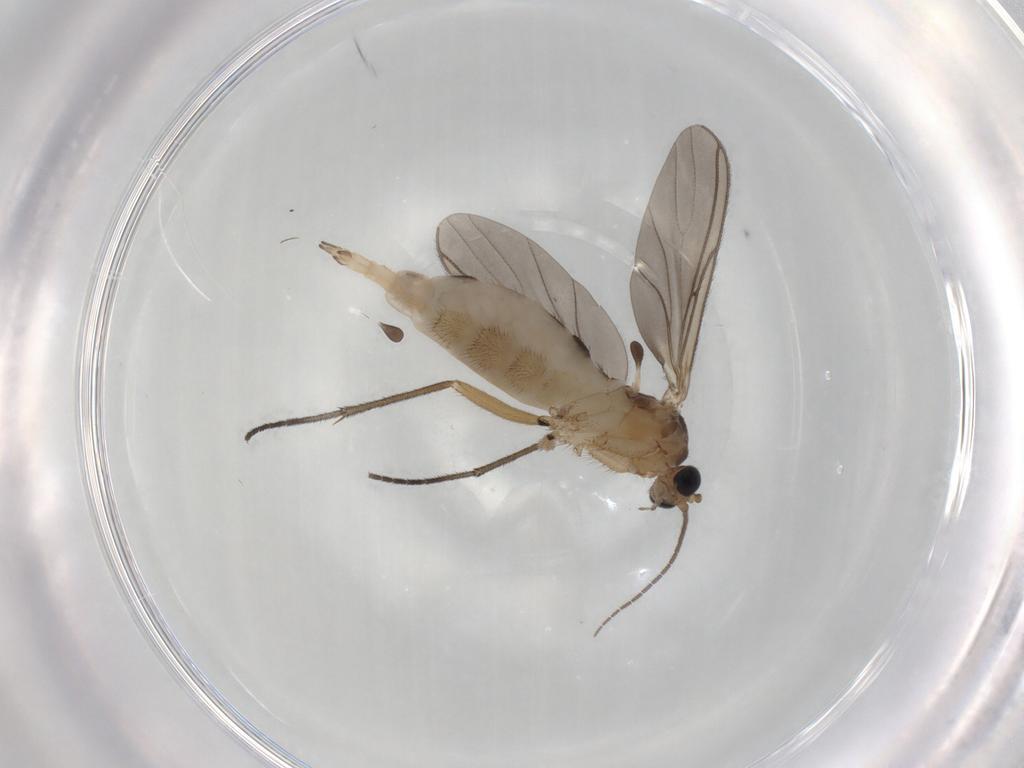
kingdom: Animalia
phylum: Arthropoda
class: Insecta
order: Diptera
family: Sciaridae
